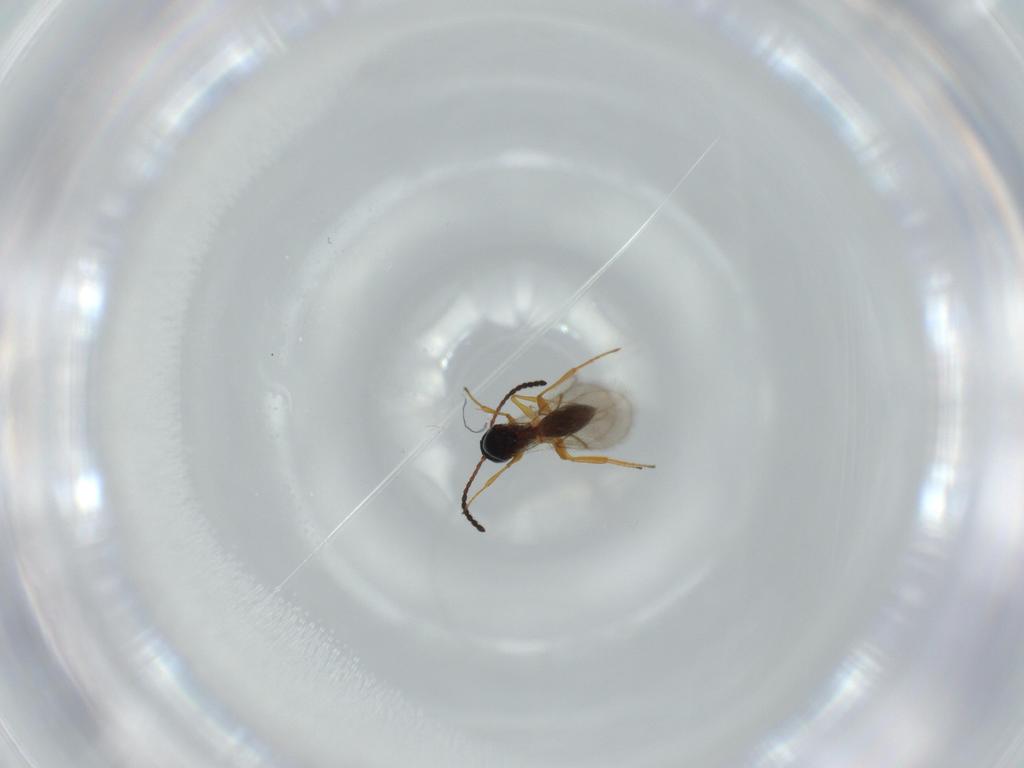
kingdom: Animalia
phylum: Arthropoda
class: Insecta
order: Hymenoptera
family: Figitidae
